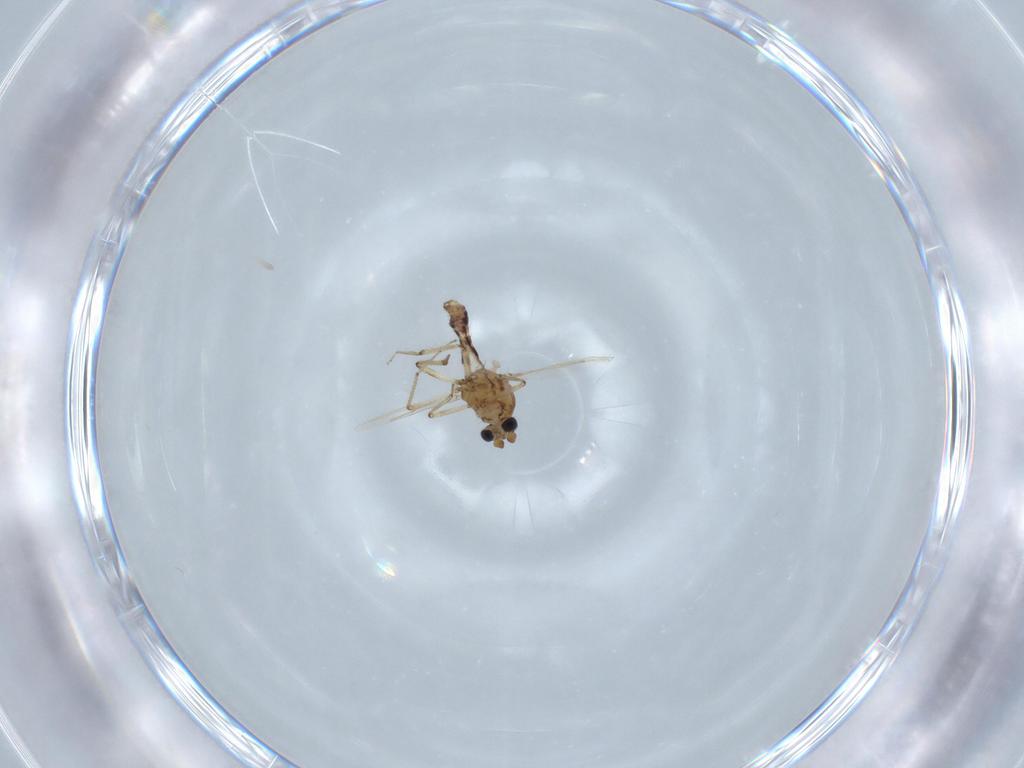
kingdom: Animalia
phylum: Arthropoda
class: Insecta
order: Diptera
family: Ceratopogonidae
